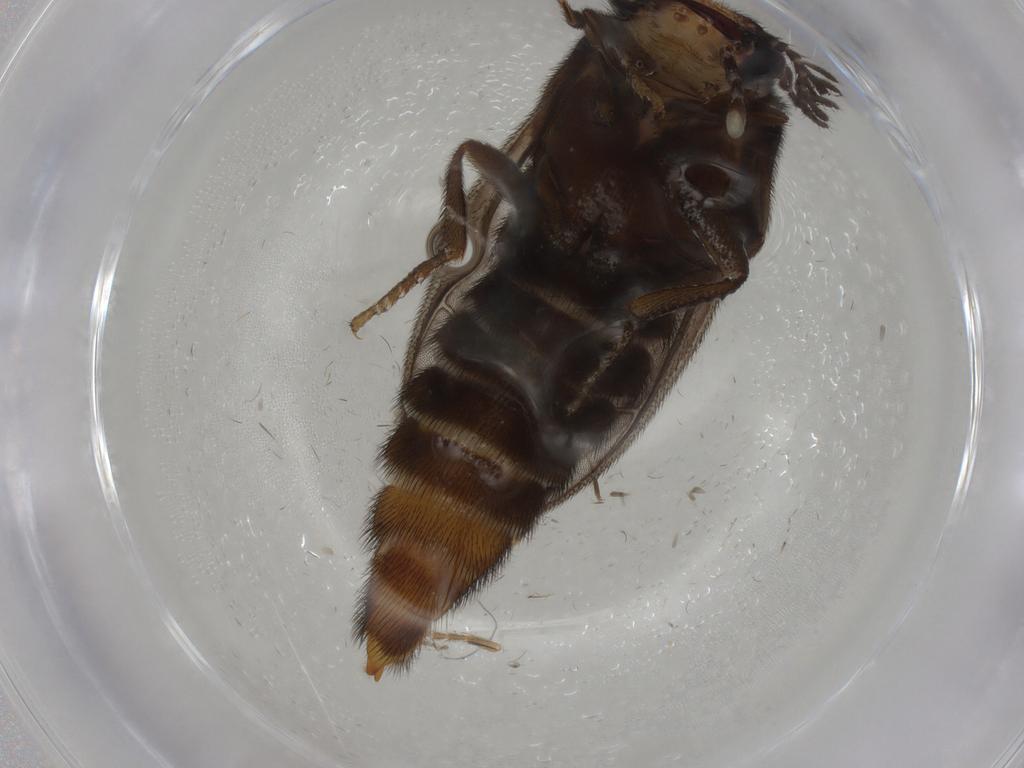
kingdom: Animalia
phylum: Arthropoda
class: Insecta
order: Coleoptera
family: Phengodidae
